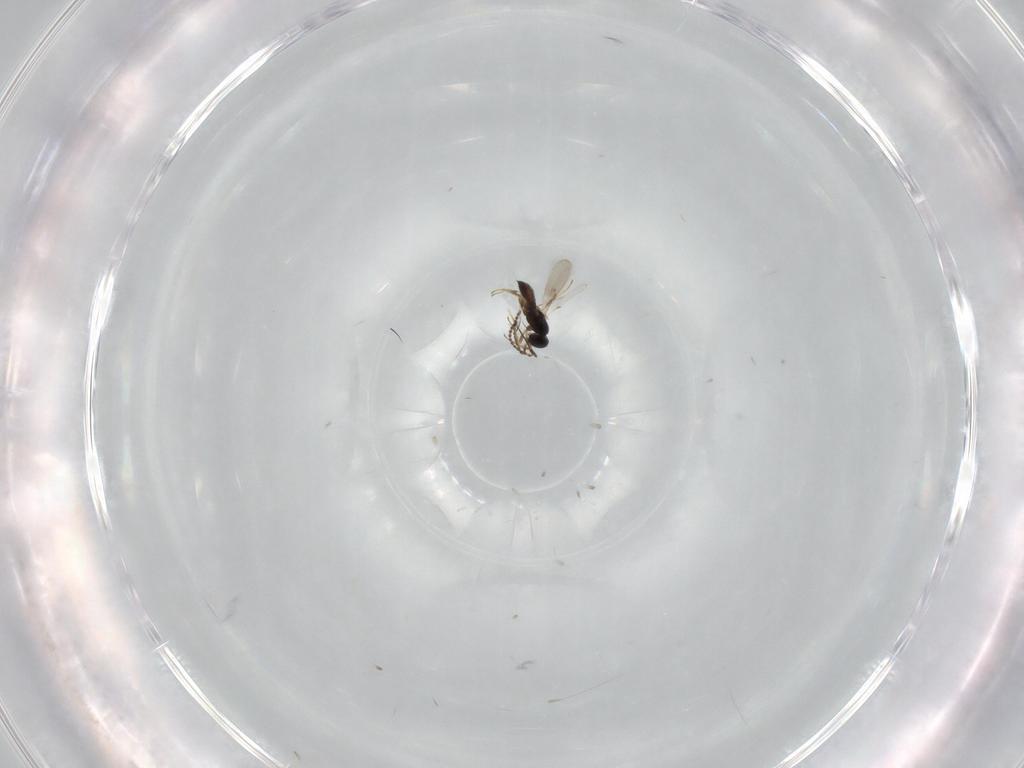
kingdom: Animalia
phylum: Arthropoda
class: Insecta
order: Hymenoptera
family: Scelionidae
